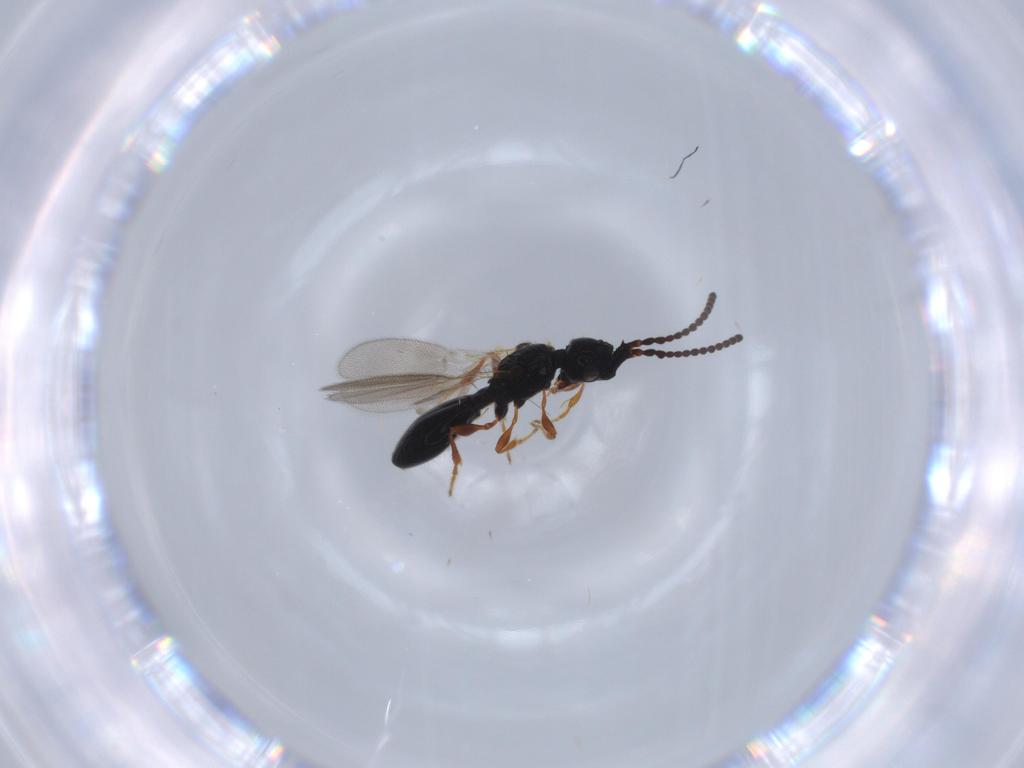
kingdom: Animalia
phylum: Arthropoda
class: Insecta
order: Hymenoptera
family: Diapriidae
